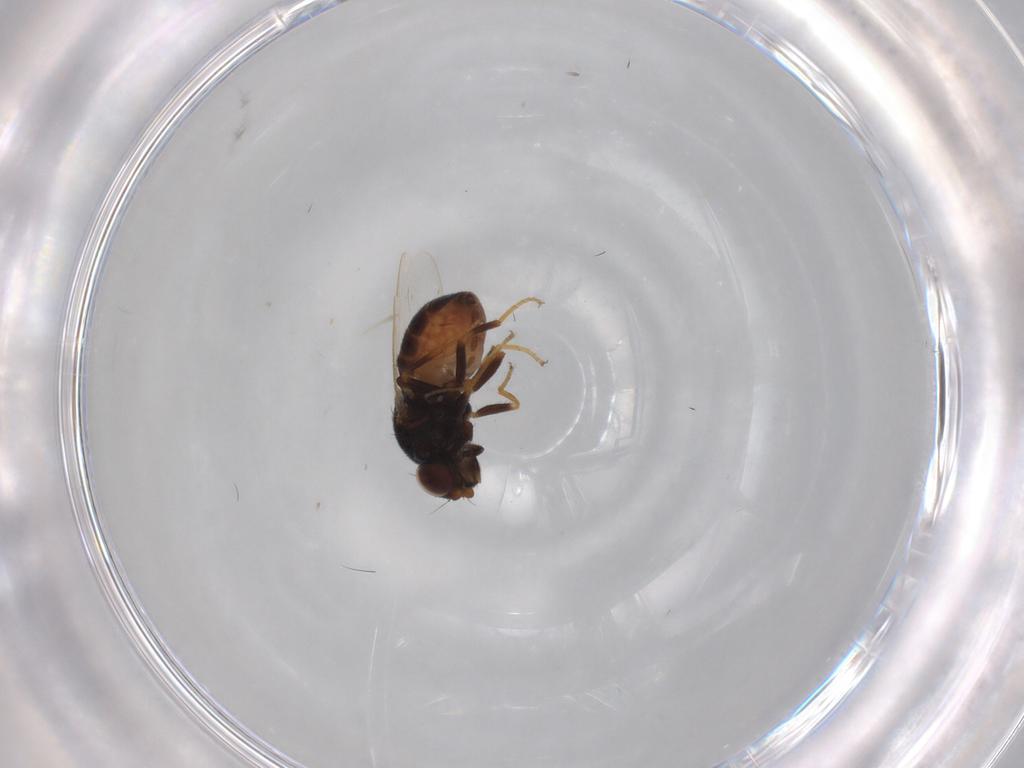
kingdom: Animalia
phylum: Arthropoda
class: Insecta
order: Diptera
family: Chloropidae
